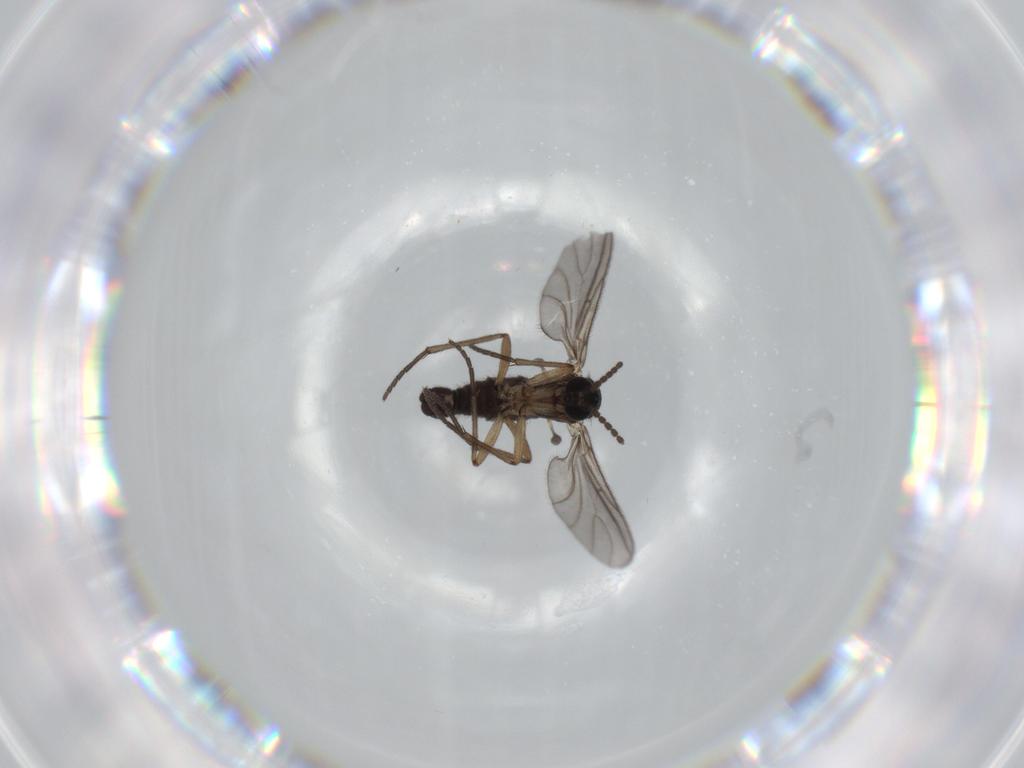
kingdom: Animalia
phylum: Arthropoda
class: Insecta
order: Diptera
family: Sciaridae
